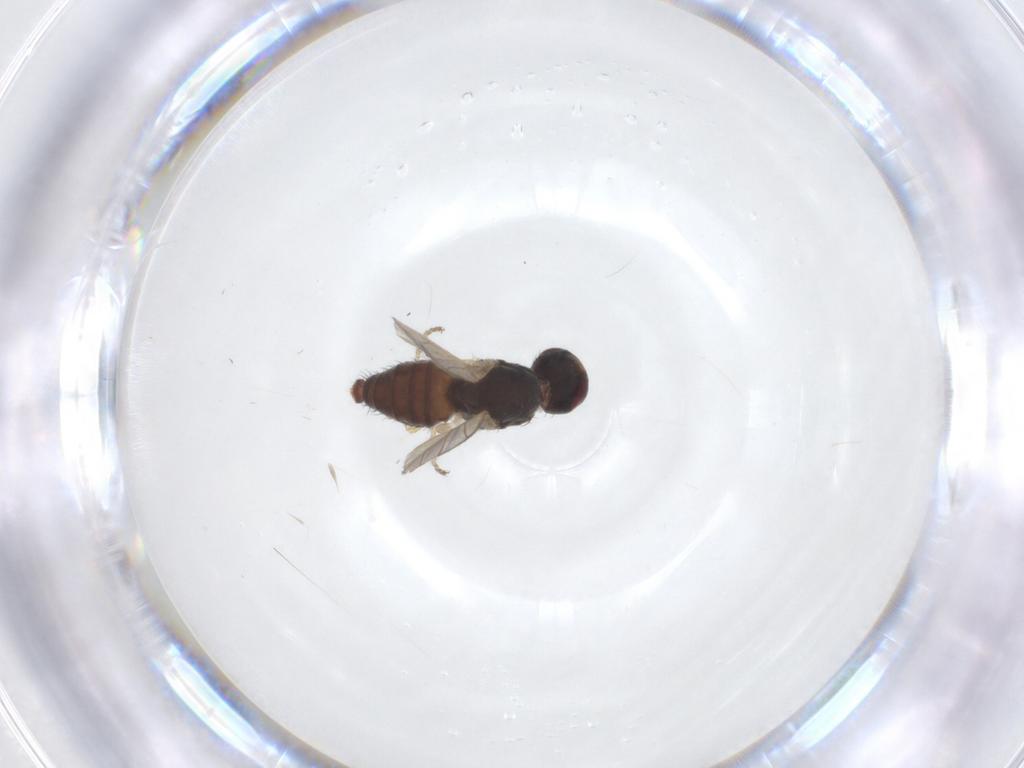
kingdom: Animalia
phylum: Arthropoda
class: Insecta
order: Diptera
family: Heleomyzidae
